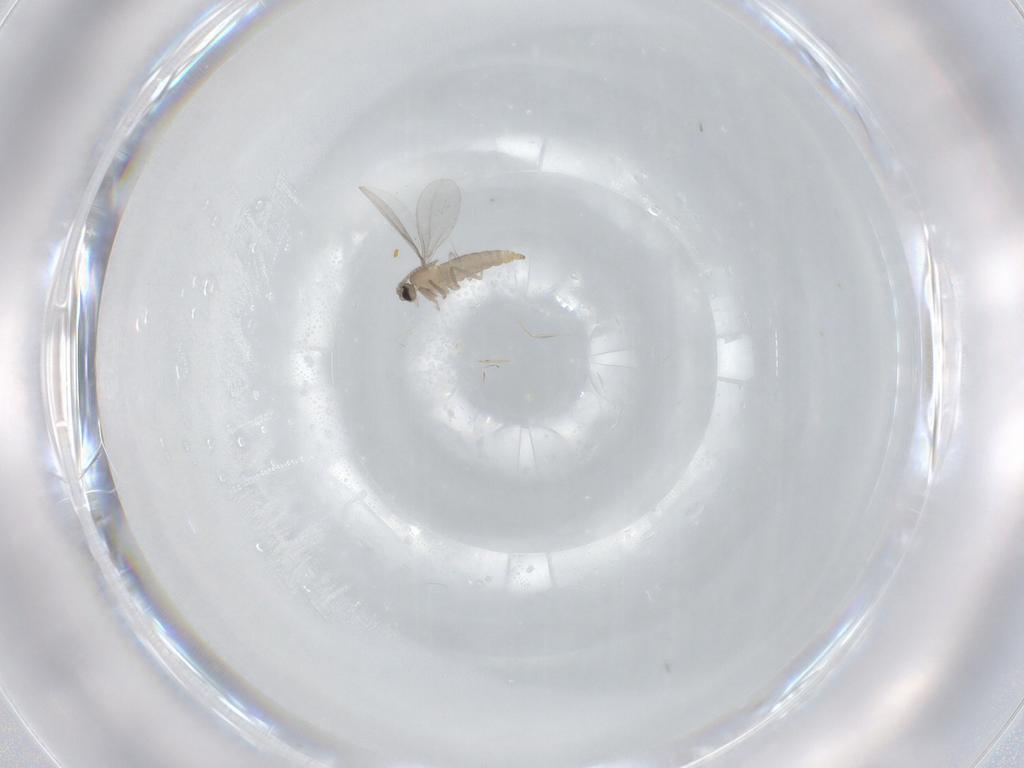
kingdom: Animalia
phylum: Arthropoda
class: Insecta
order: Diptera
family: Cecidomyiidae
